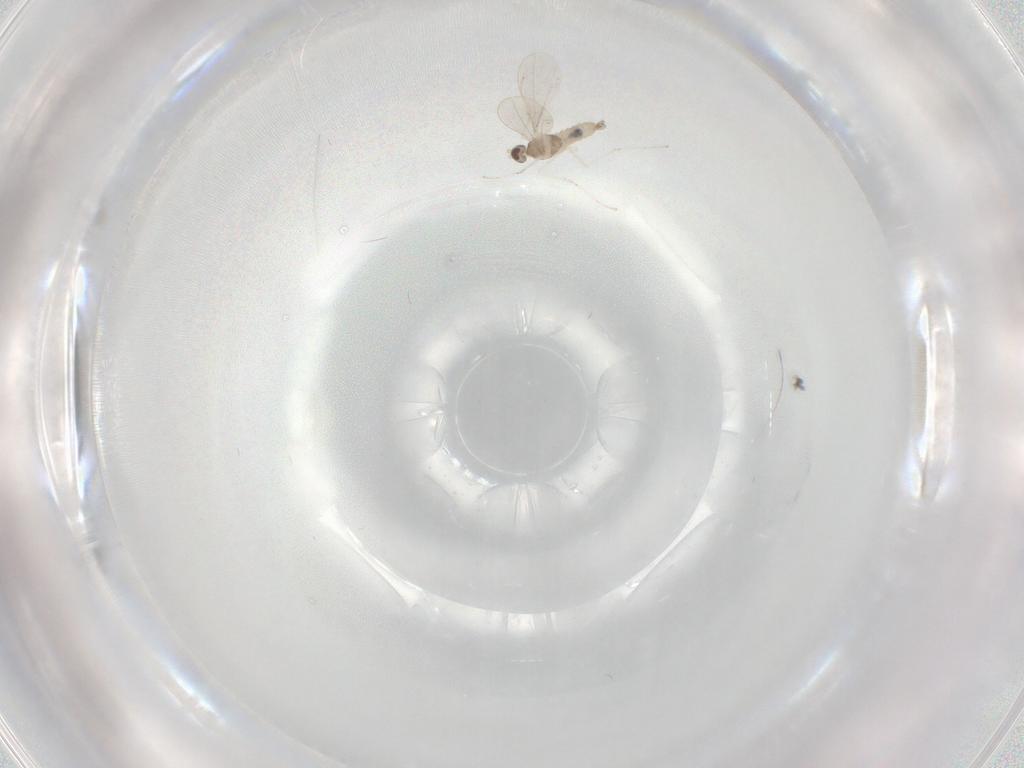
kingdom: Animalia
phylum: Arthropoda
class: Insecta
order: Diptera
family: Cecidomyiidae
